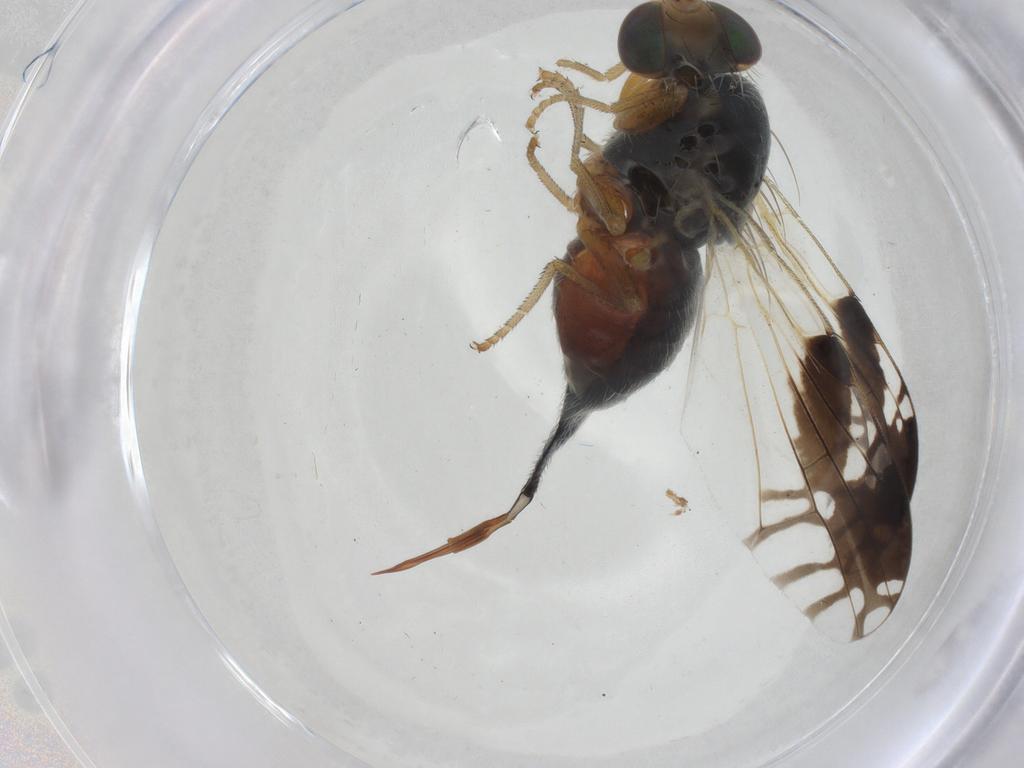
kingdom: Animalia
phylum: Arthropoda
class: Insecta
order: Diptera
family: Tephritidae
